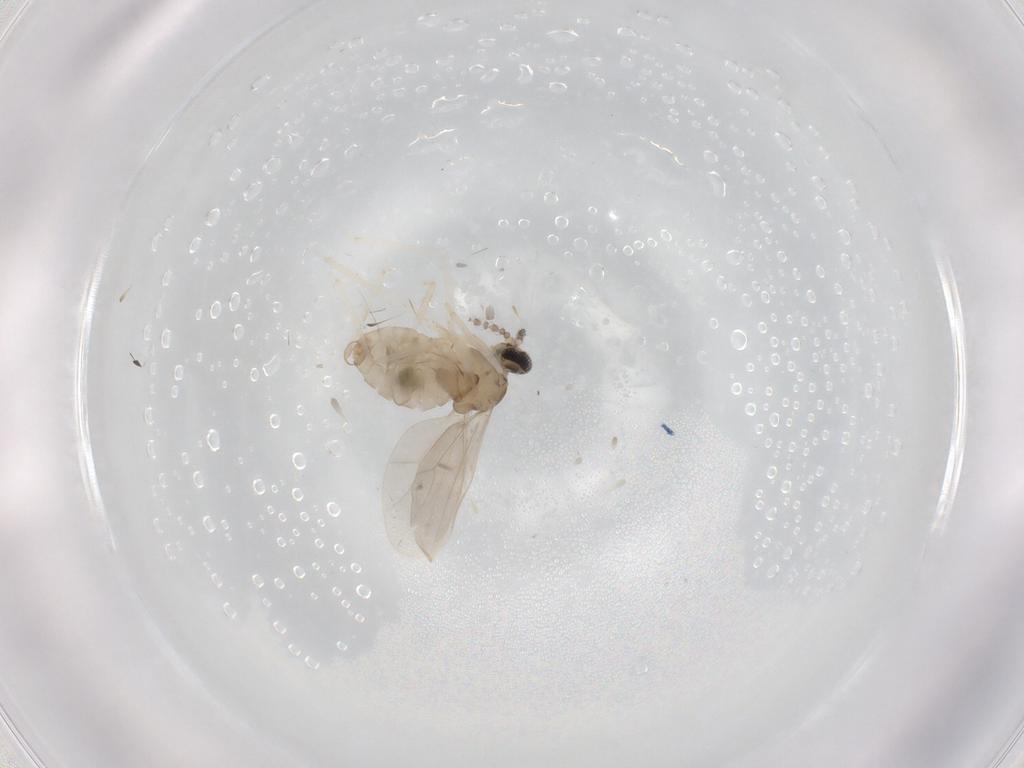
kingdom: Animalia
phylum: Arthropoda
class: Insecta
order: Diptera
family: Dolichopodidae
